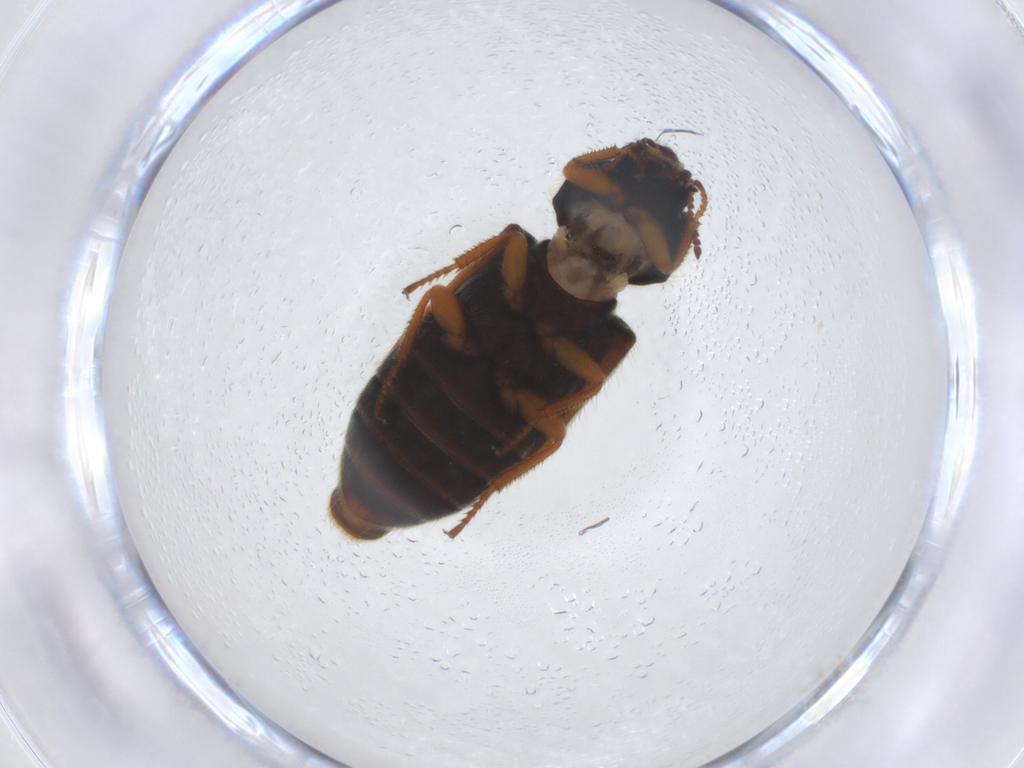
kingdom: Animalia
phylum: Arthropoda
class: Insecta
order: Coleoptera
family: Melyridae
